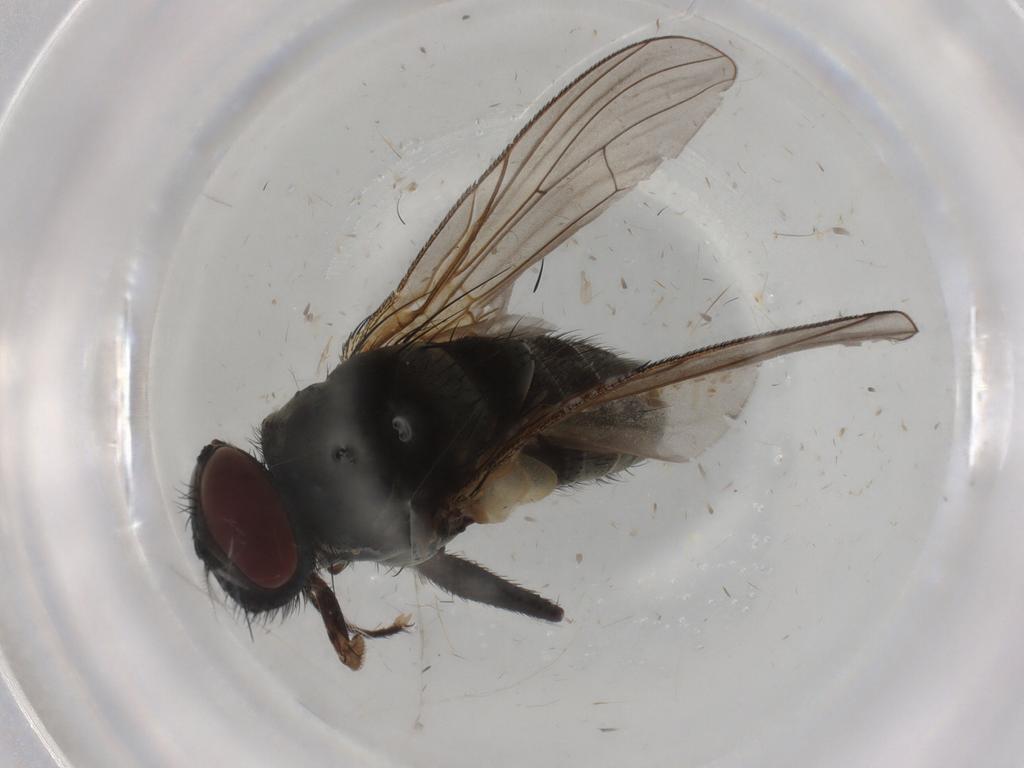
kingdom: Animalia
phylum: Arthropoda
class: Insecta
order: Diptera
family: Muscidae
